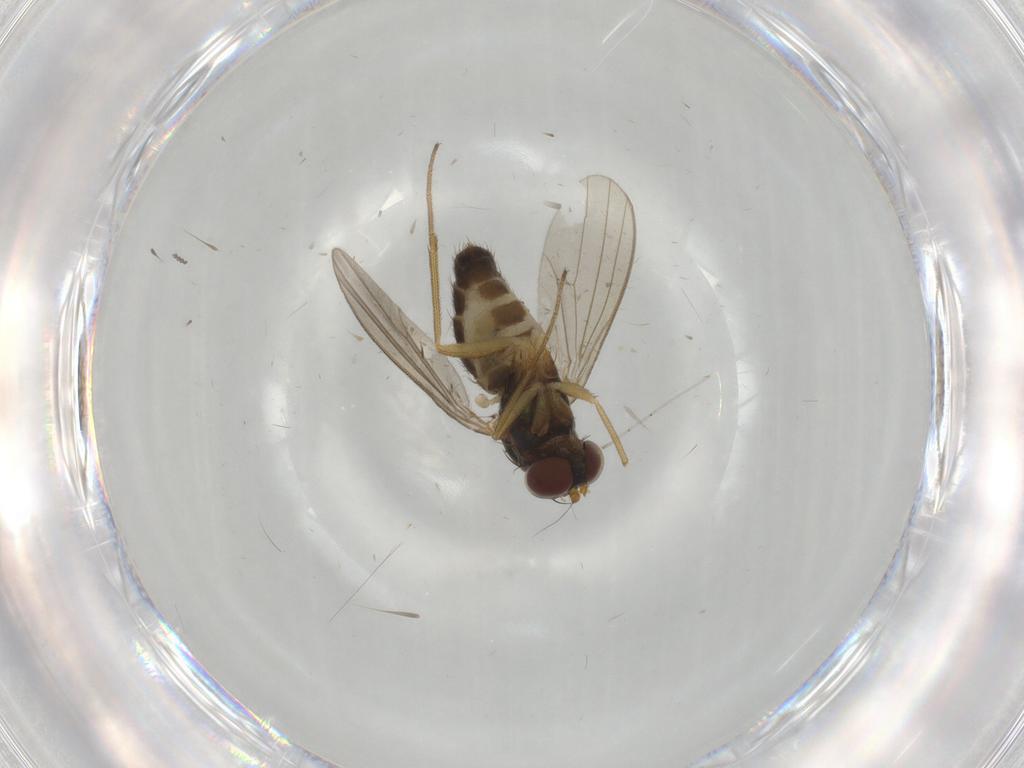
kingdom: Animalia
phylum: Arthropoda
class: Insecta
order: Diptera
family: Dolichopodidae
